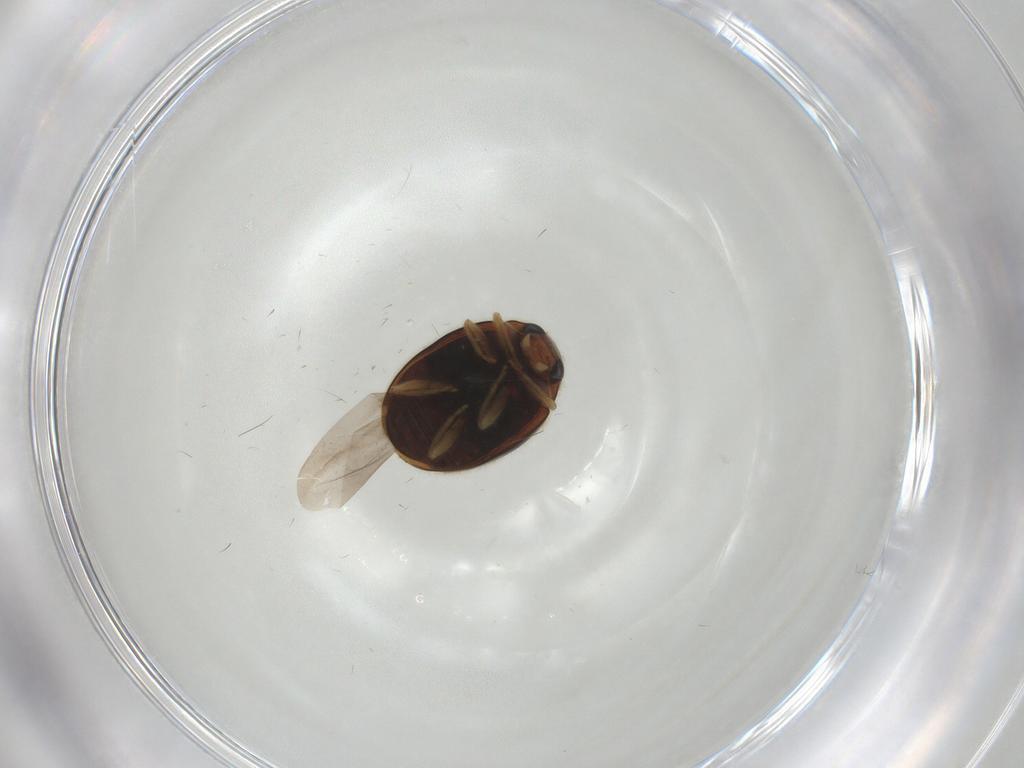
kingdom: Animalia
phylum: Arthropoda
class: Insecta
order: Coleoptera
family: Coccinellidae
